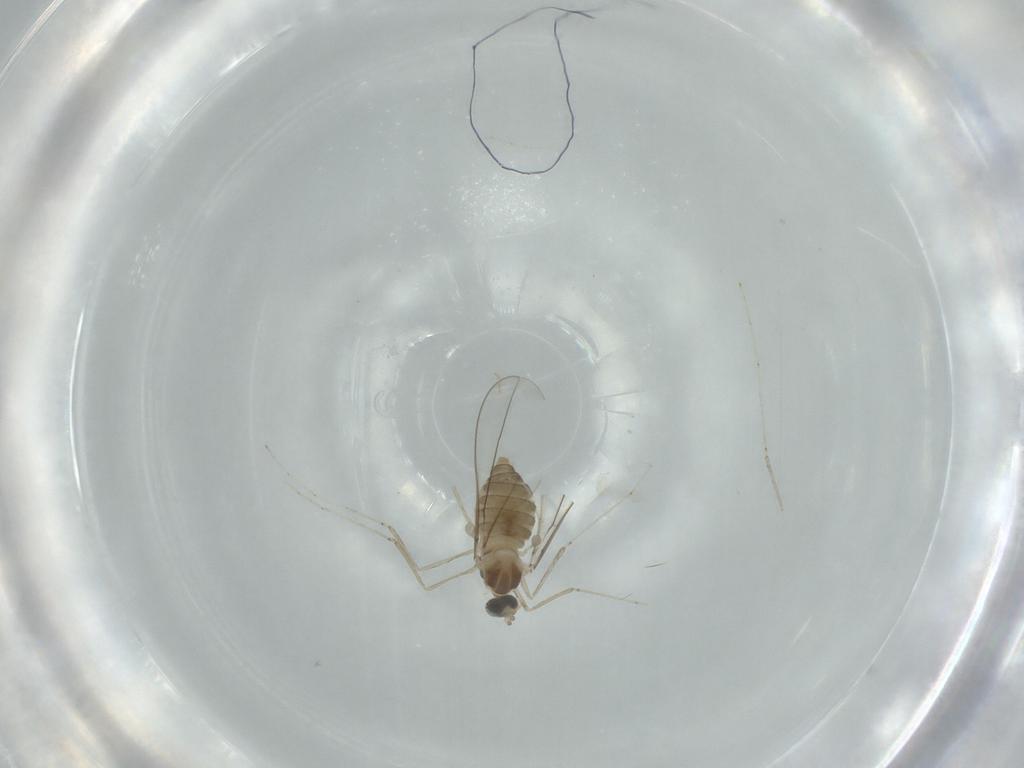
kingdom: Animalia
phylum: Arthropoda
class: Insecta
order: Diptera
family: Cecidomyiidae
